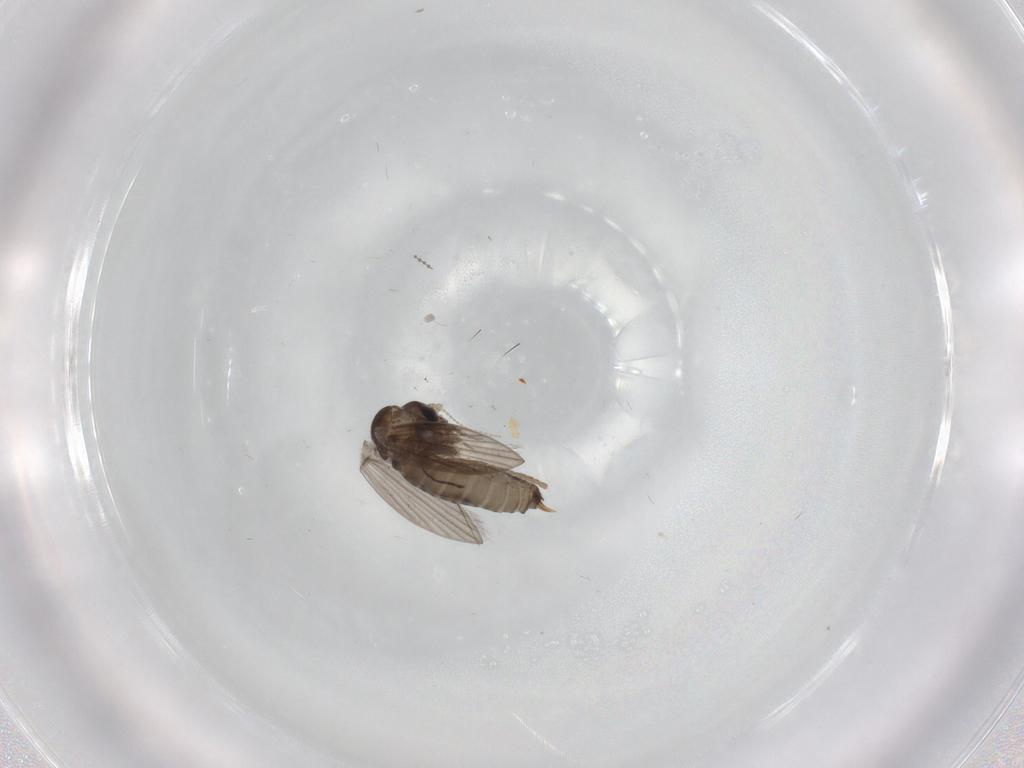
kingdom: Animalia
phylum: Arthropoda
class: Insecta
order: Diptera
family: Psychodidae
